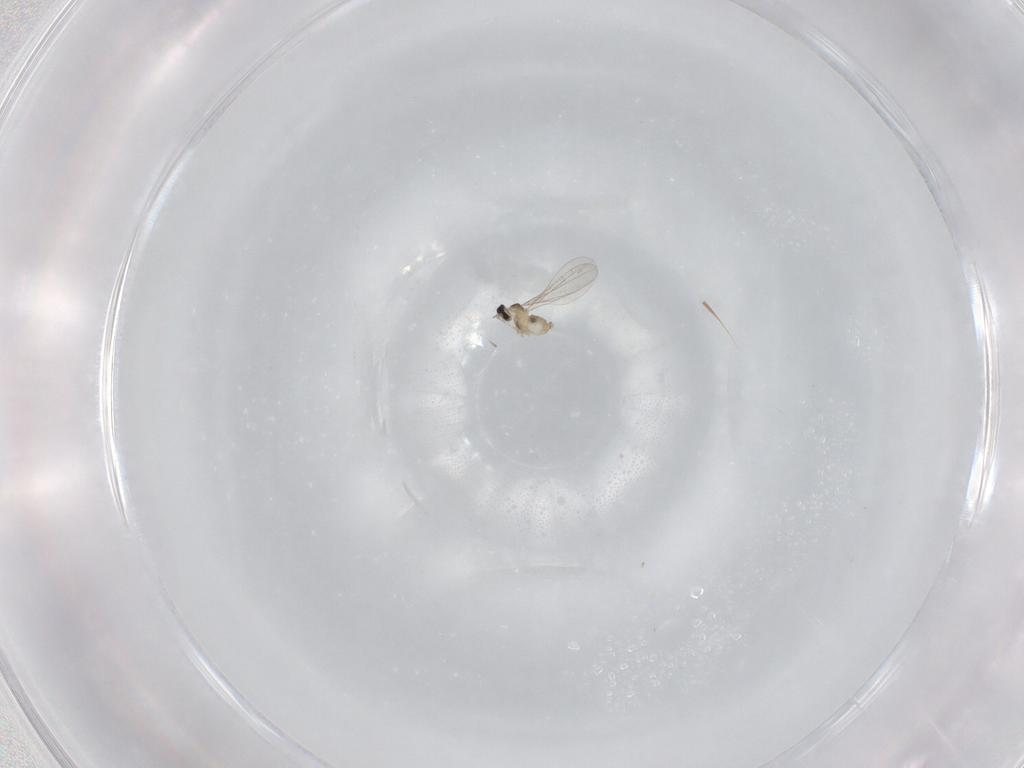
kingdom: Animalia
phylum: Arthropoda
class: Insecta
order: Diptera
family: Cecidomyiidae
